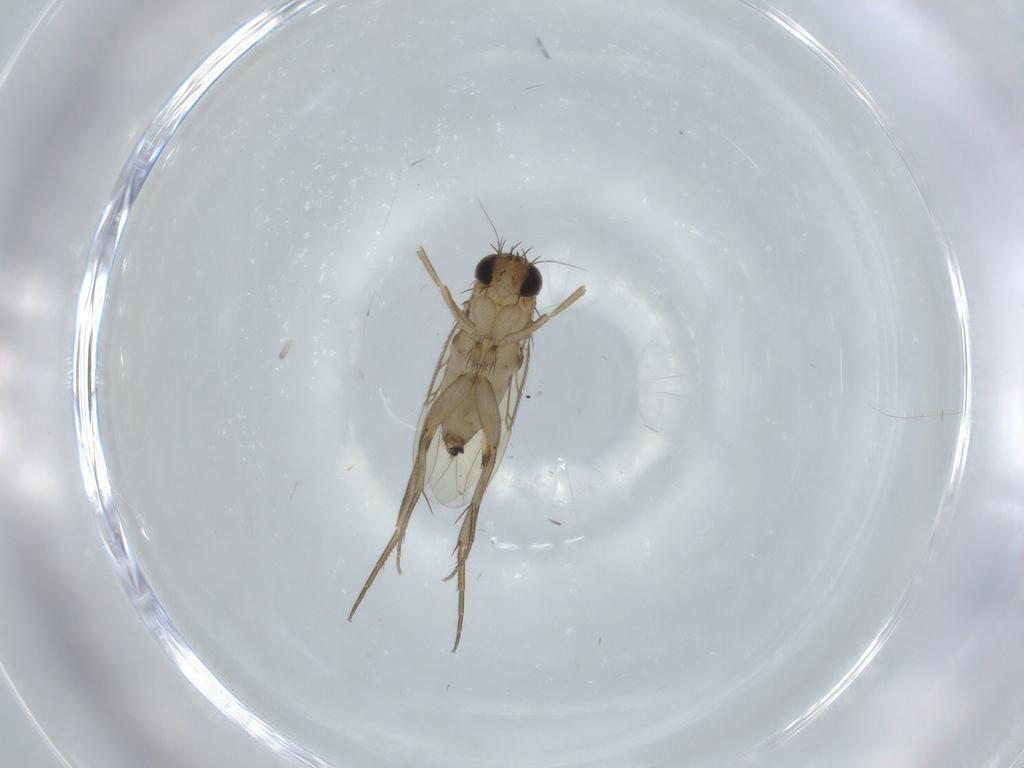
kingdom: Animalia
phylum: Arthropoda
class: Insecta
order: Diptera
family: Phoridae
